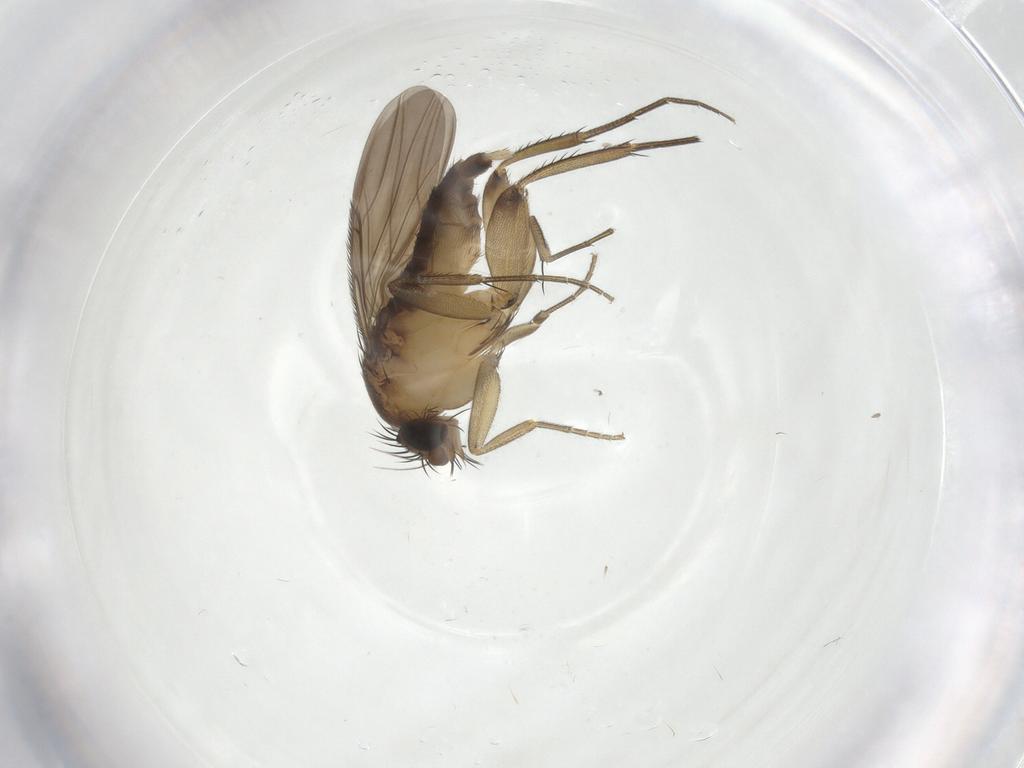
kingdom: Animalia
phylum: Arthropoda
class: Insecta
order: Diptera
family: Phoridae
